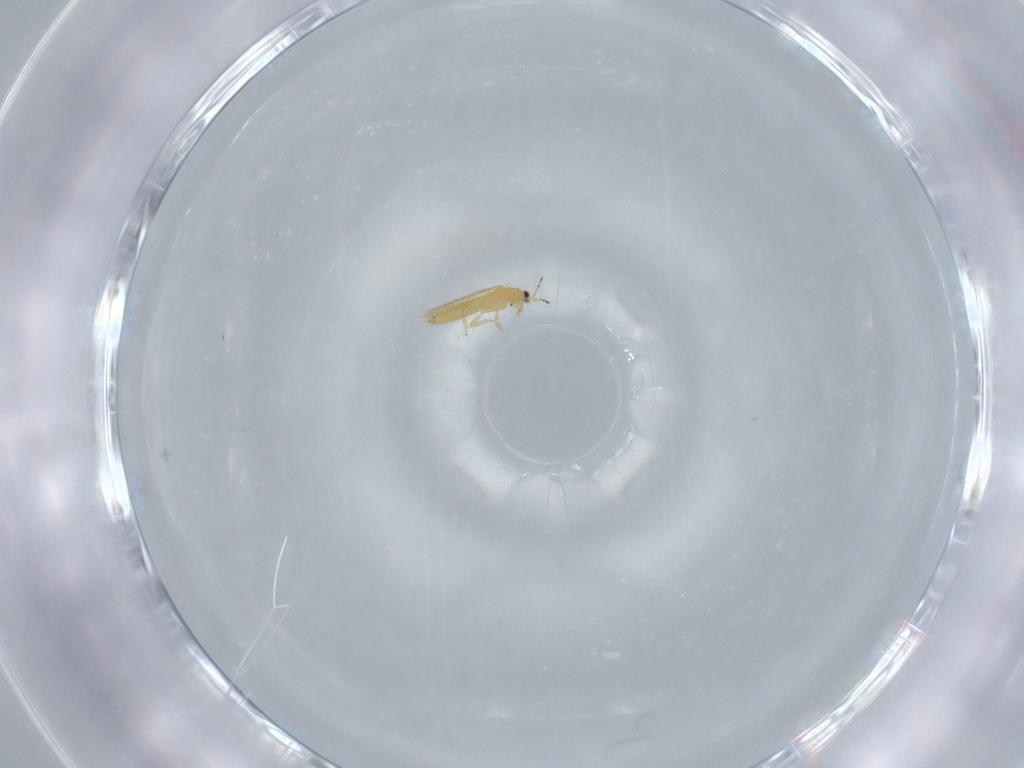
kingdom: Animalia
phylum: Arthropoda
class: Insecta
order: Thysanoptera
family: Thripidae
